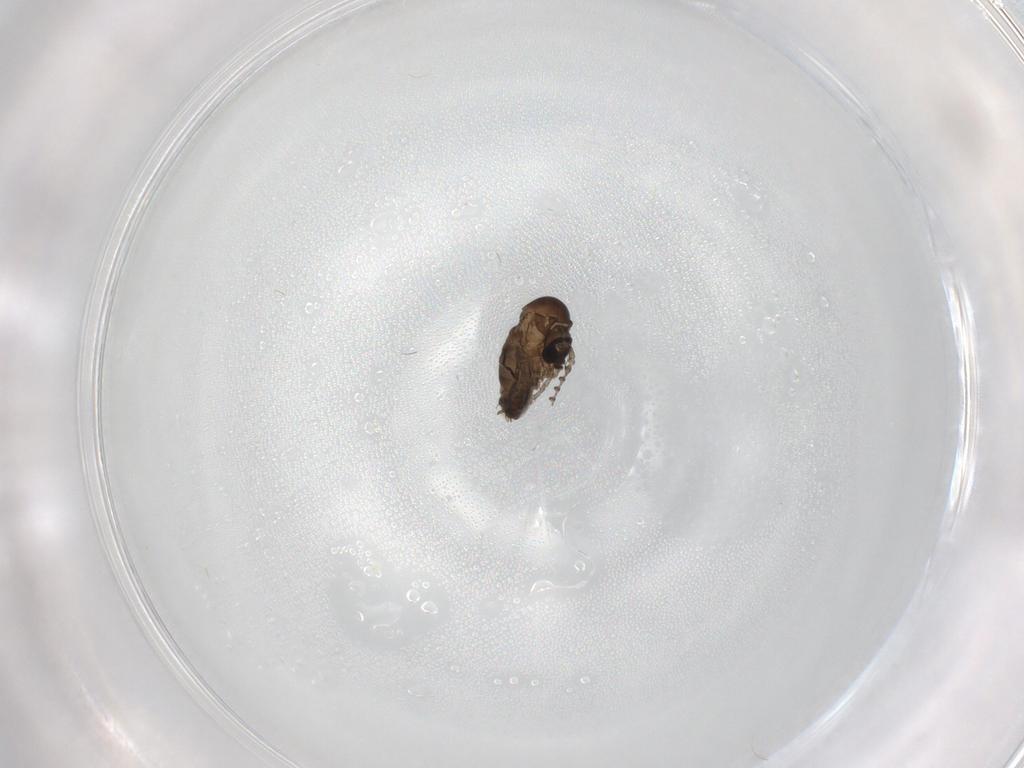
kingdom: Animalia
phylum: Arthropoda
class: Insecta
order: Diptera
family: Psychodidae
